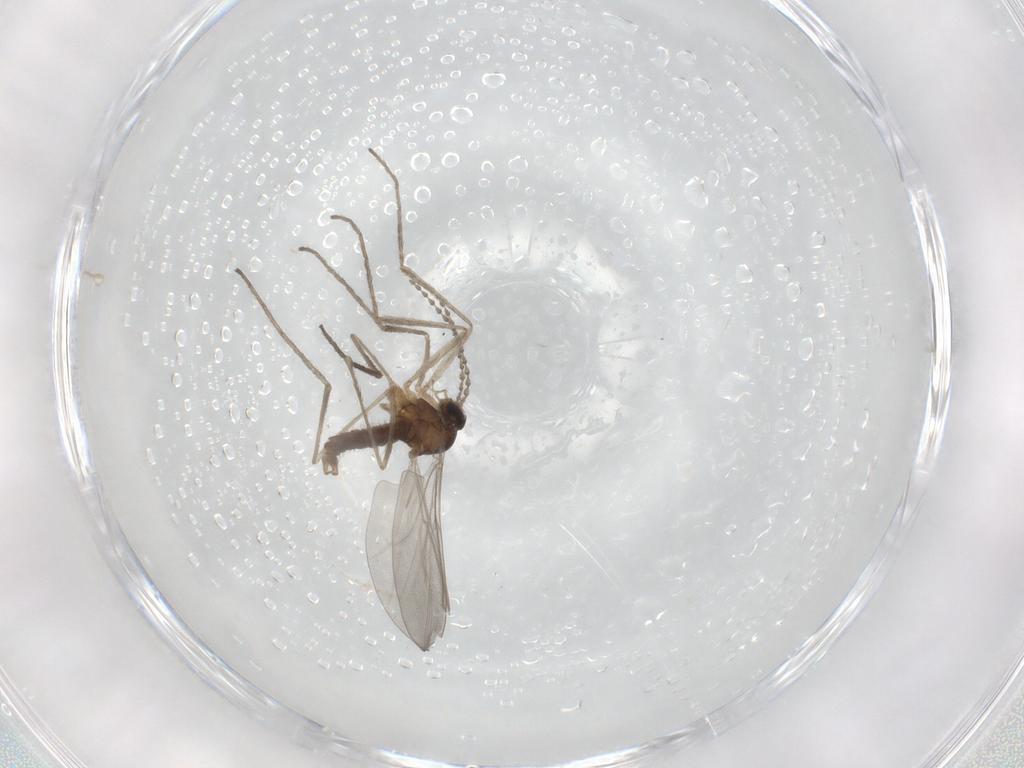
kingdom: Animalia
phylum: Arthropoda
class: Insecta
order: Diptera
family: Cecidomyiidae
